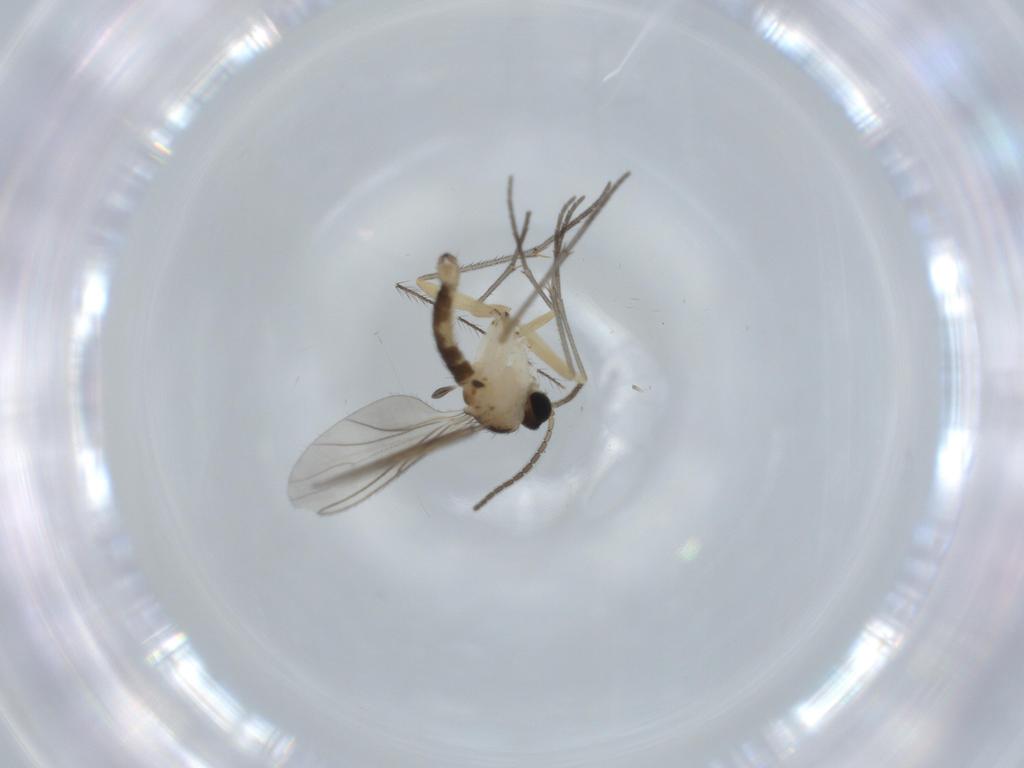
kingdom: Animalia
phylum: Arthropoda
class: Insecta
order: Diptera
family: Sciaridae
